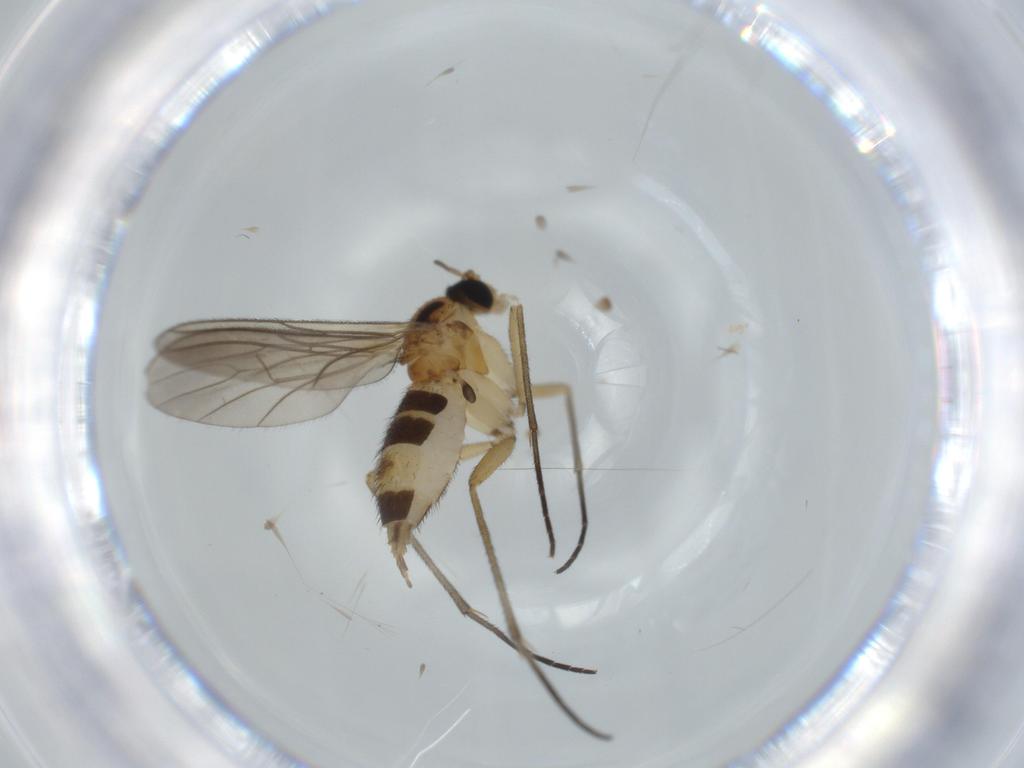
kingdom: Animalia
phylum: Arthropoda
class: Insecta
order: Diptera
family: Chironomidae
